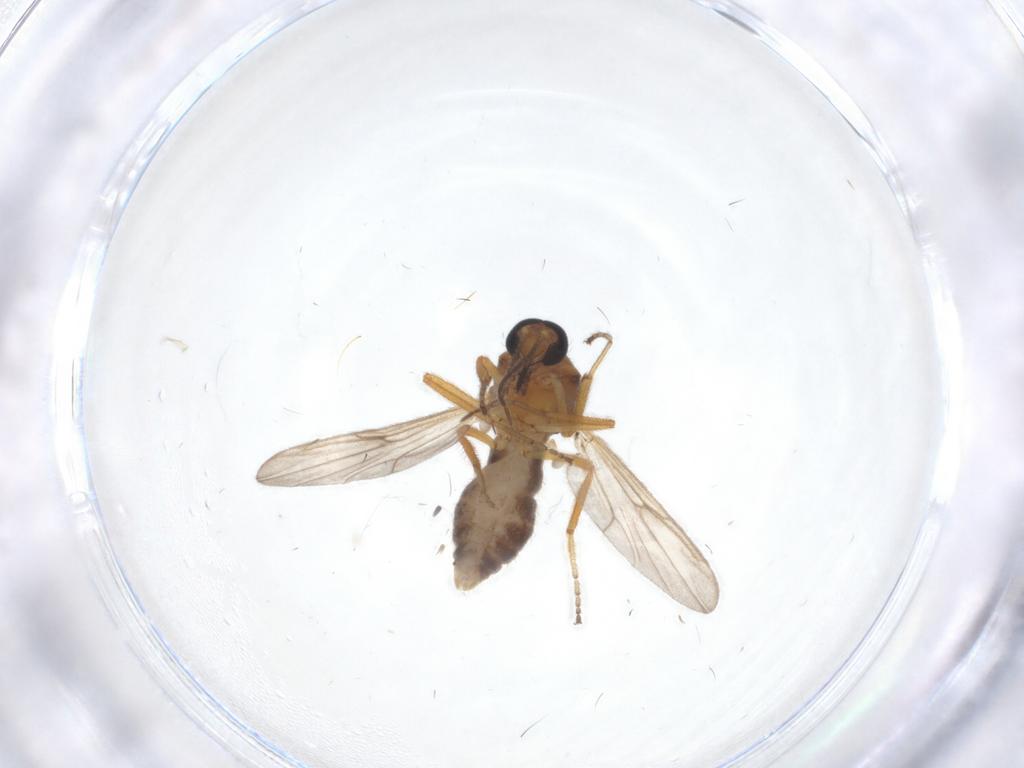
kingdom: Animalia
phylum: Arthropoda
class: Insecta
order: Diptera
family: Ceratopogonidae
